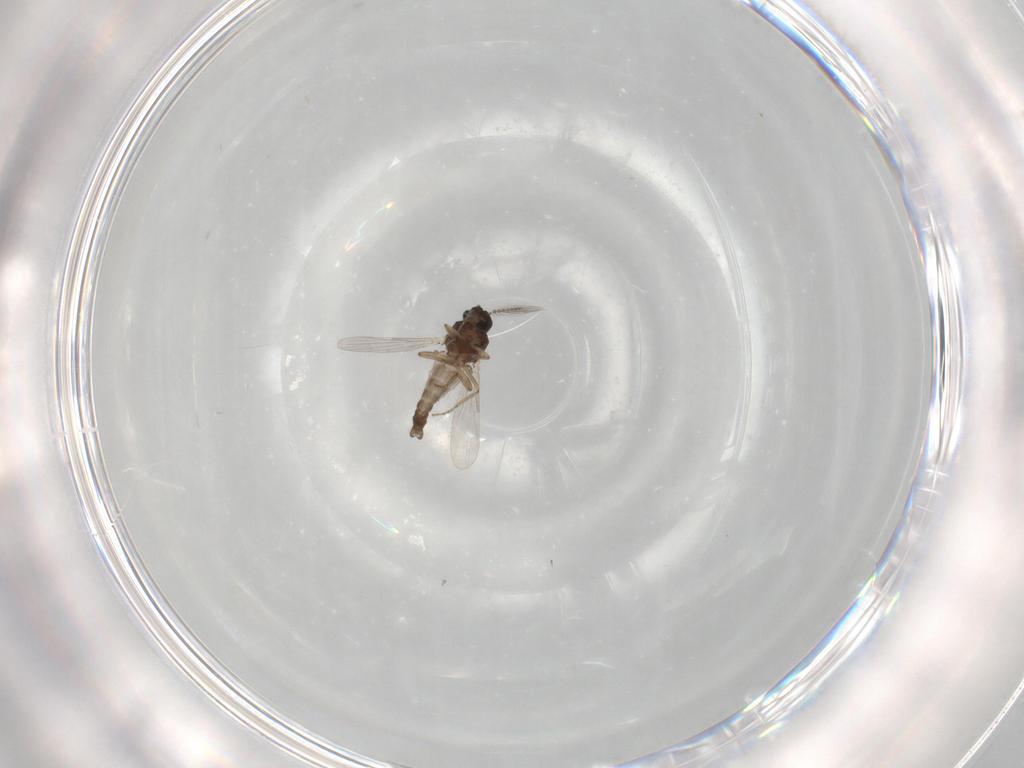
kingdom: Animalia
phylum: Arthropoda
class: Insecta
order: Diptera
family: Ceratopogonidae
